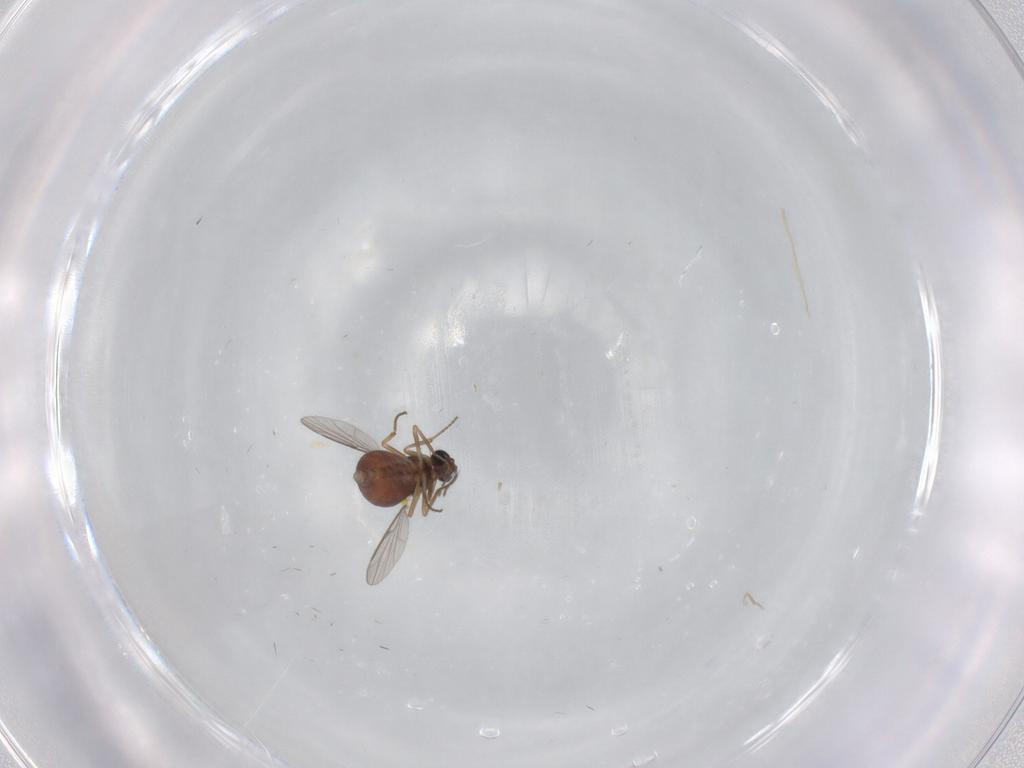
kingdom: Animalia
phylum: Arthropoda
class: Insecta
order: Diptera
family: Ceratopogonidae
